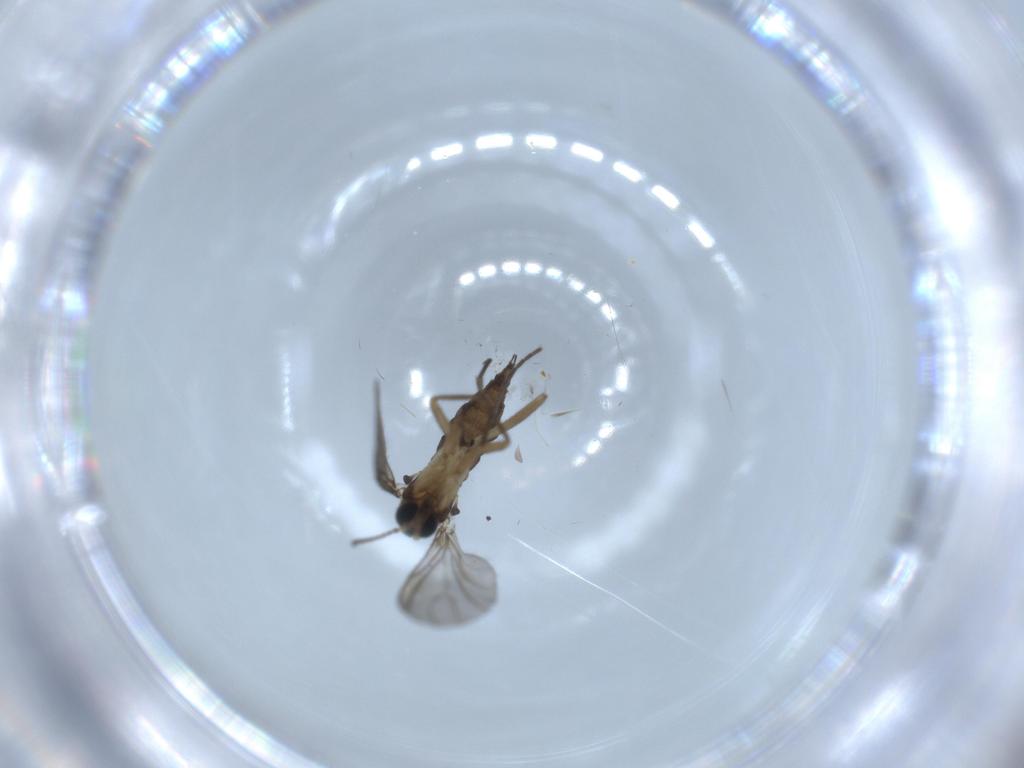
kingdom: Animalia
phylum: Arthropoda
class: Insecta
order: Diptera
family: Sciaridae
